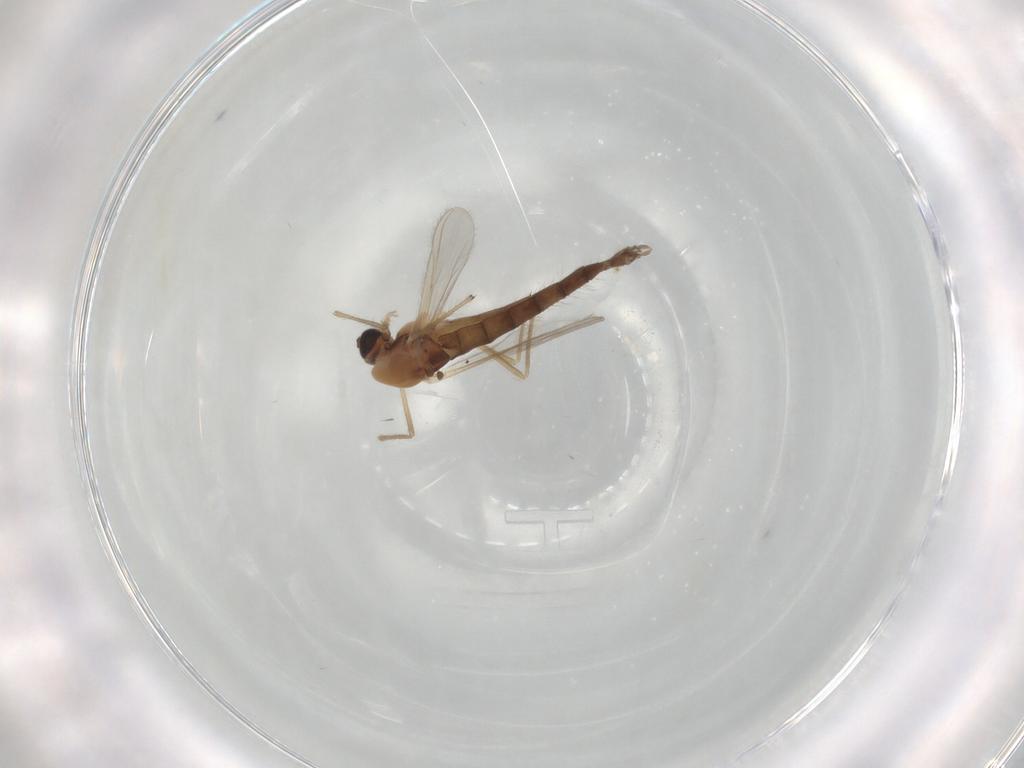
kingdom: Animalia
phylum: Arthropoda
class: Insecta
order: Diptera
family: Chironomidae
